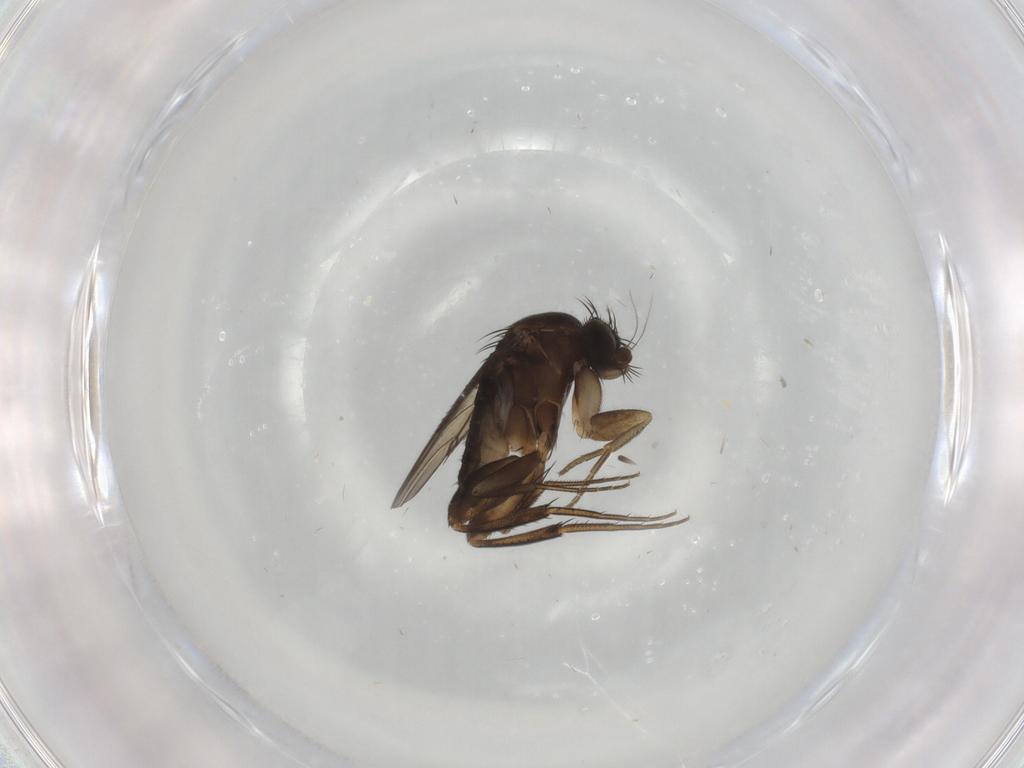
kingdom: Animalia
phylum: Arthropoda
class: Insecta
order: Diptera
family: Phoridae
